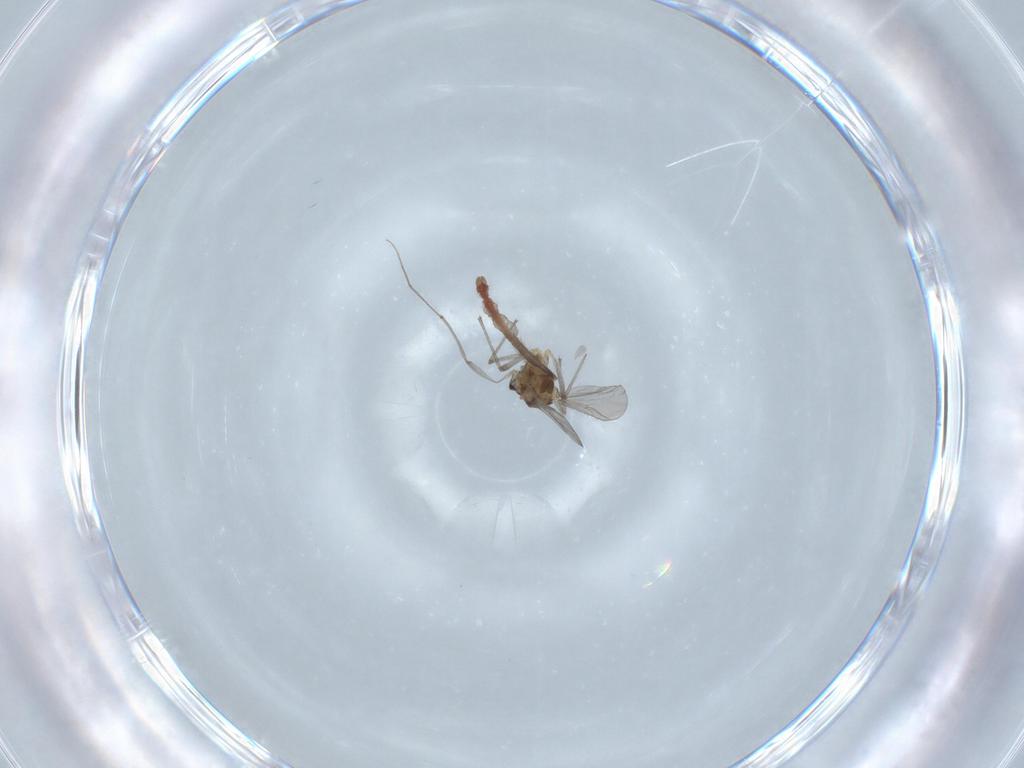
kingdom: Animalia
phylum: Arthropoda
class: Insecta
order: Diptera
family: Chironomidae
